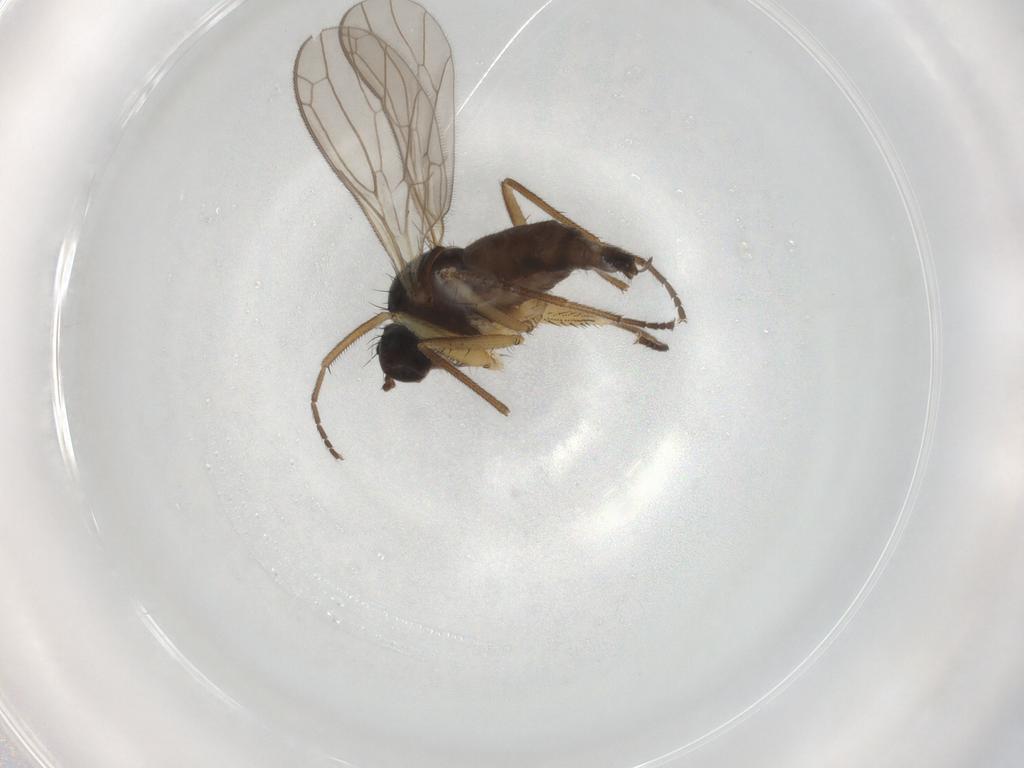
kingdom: Animalia
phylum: Arthropoda
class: Insecta
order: Diptera
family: Empididae
